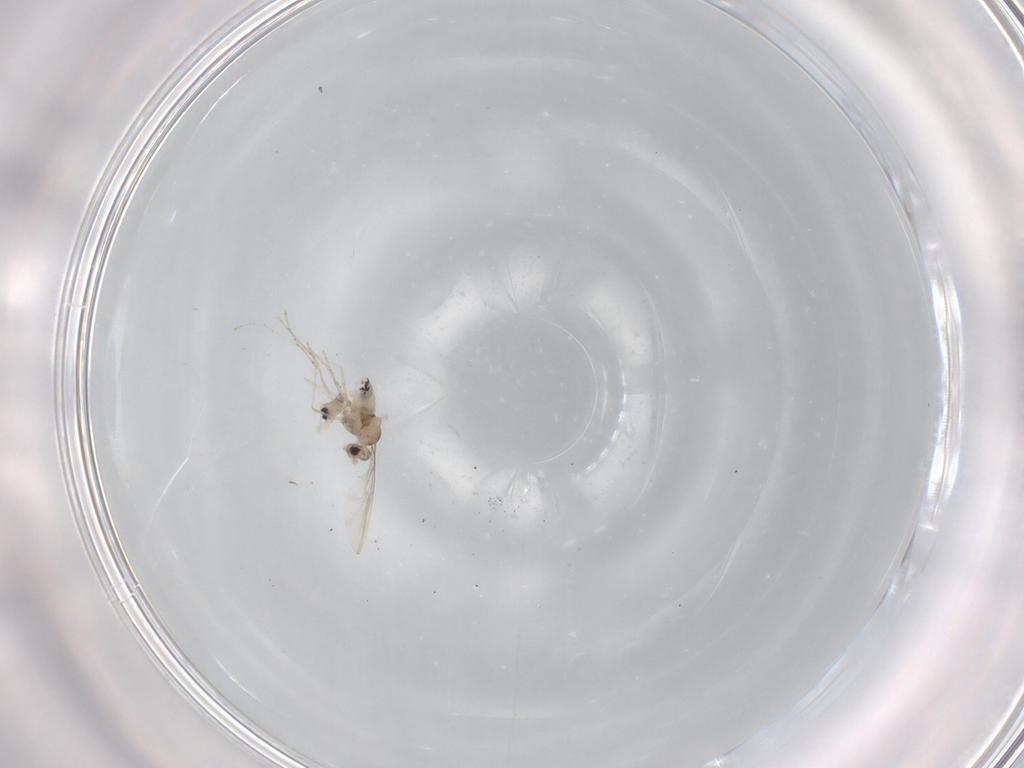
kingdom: Animalia
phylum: Arthropoda
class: Insecta
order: Diptera
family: Cecidomyiidae
